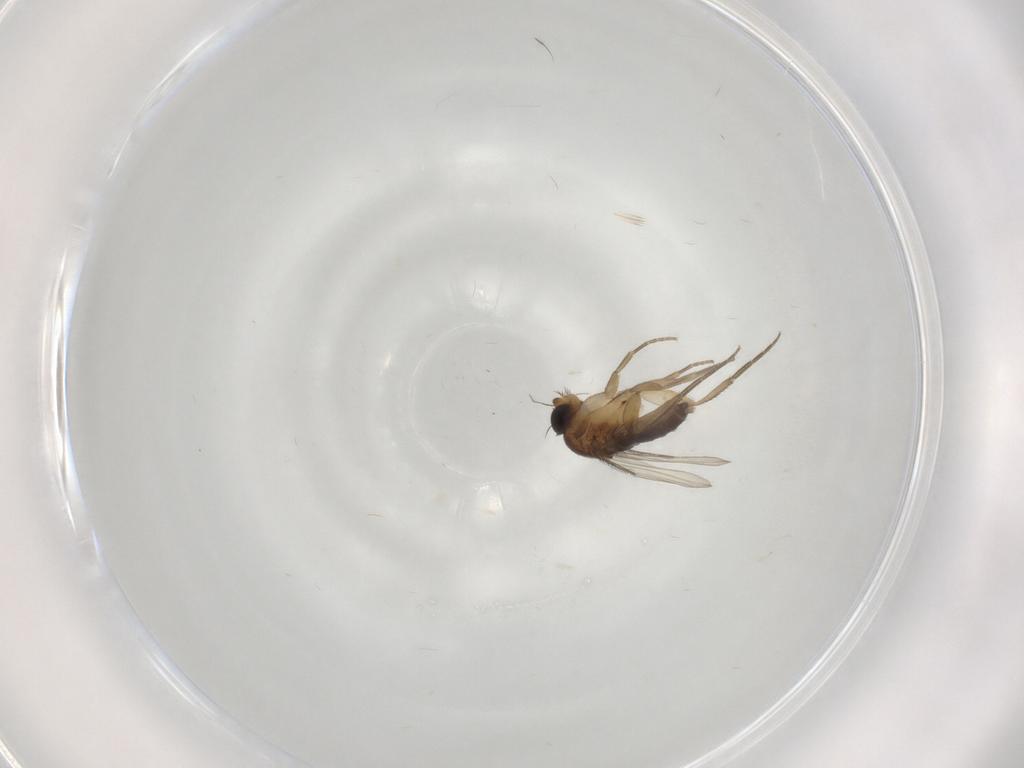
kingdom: Animalia
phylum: Arthropoda
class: Insecta
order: Diptera
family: Phoridae
